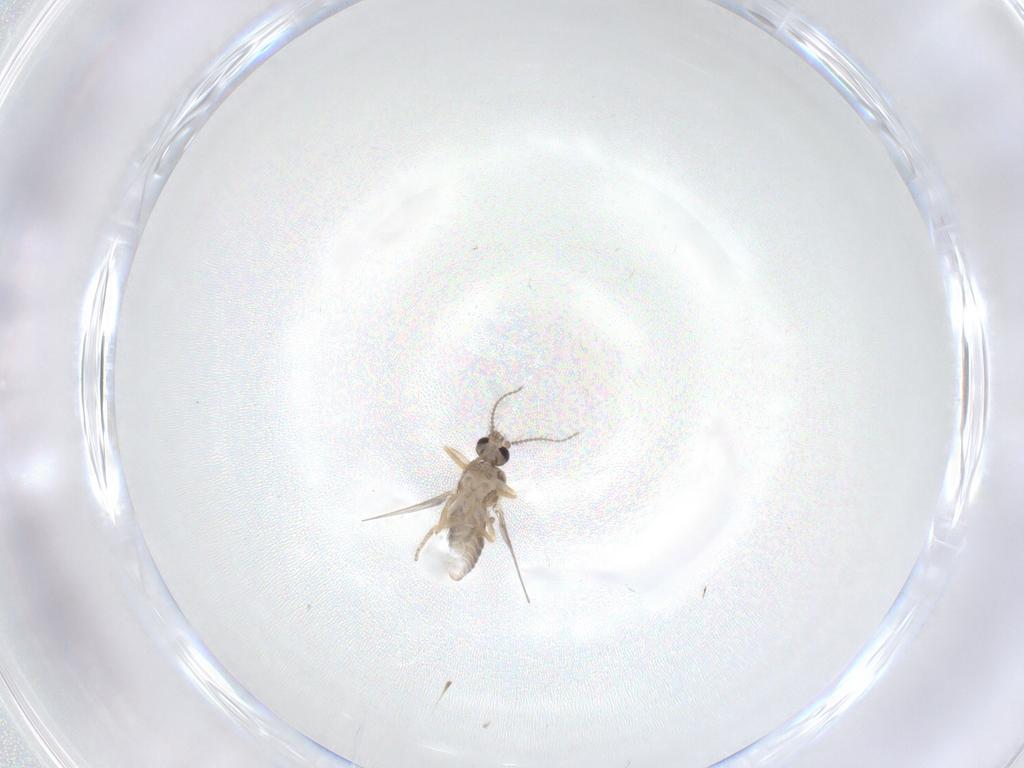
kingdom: Animalia
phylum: Arthropoda
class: Insecta
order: Diptera
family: Ceratopogonidae
